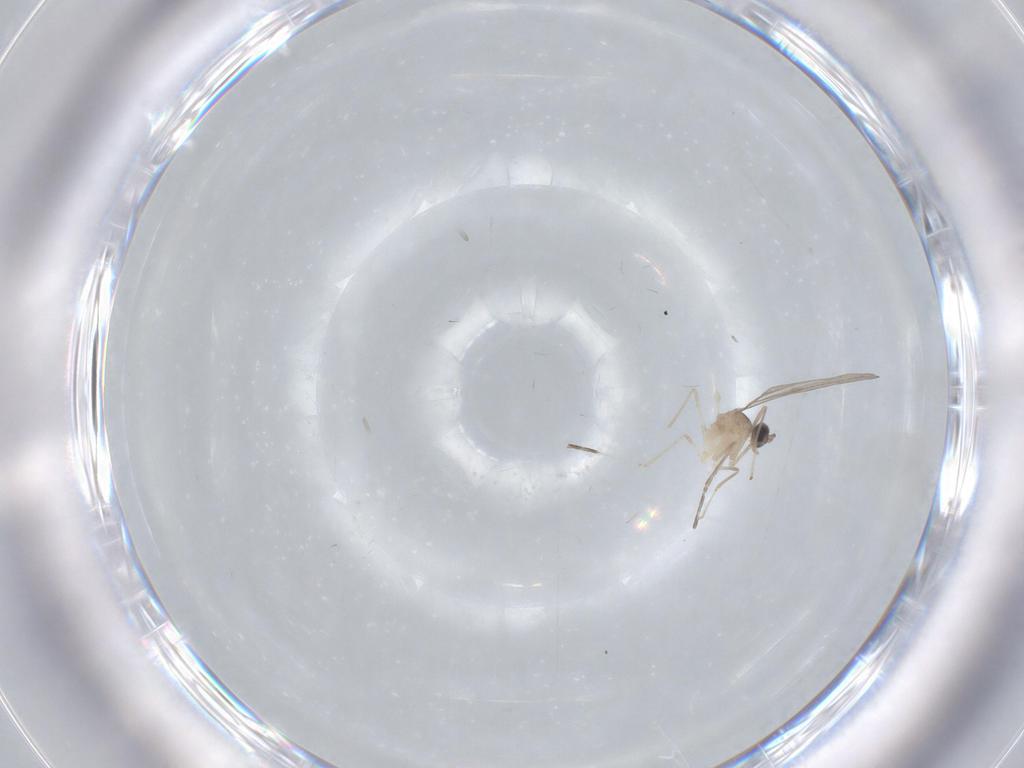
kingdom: Animalia
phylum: Arthropoda
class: Insecta
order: Diptera
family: Cecidomyiidae
